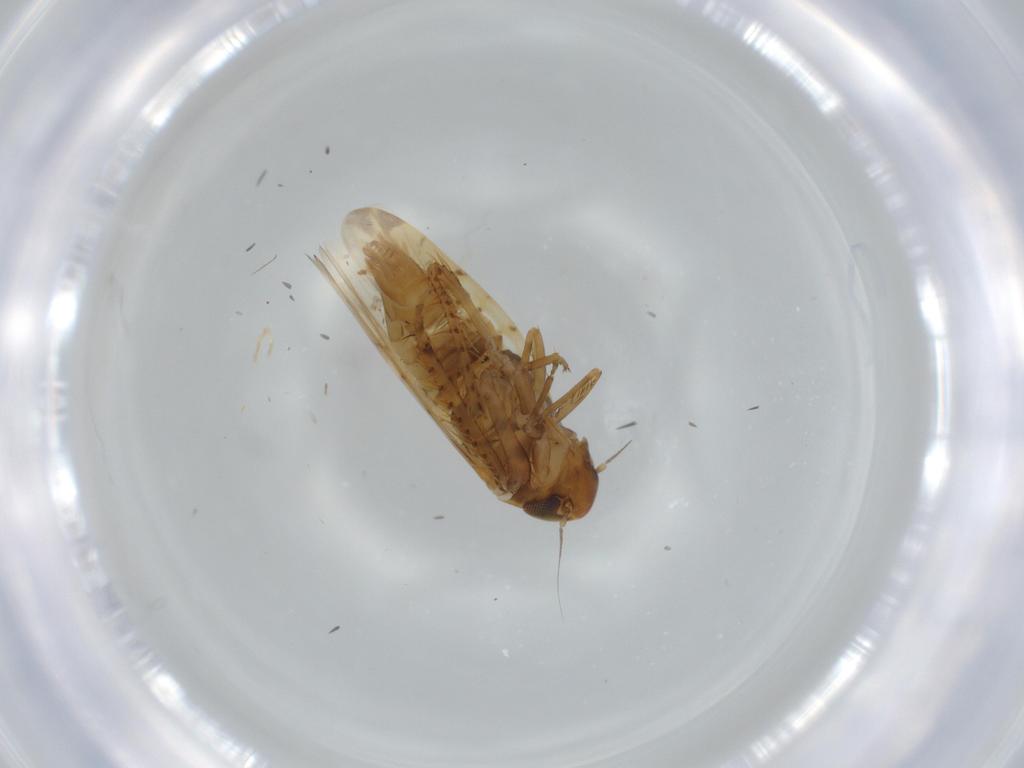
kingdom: Animalia
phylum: Arthropoda
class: Insecta
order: Hemiptera
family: Cicadellidae
